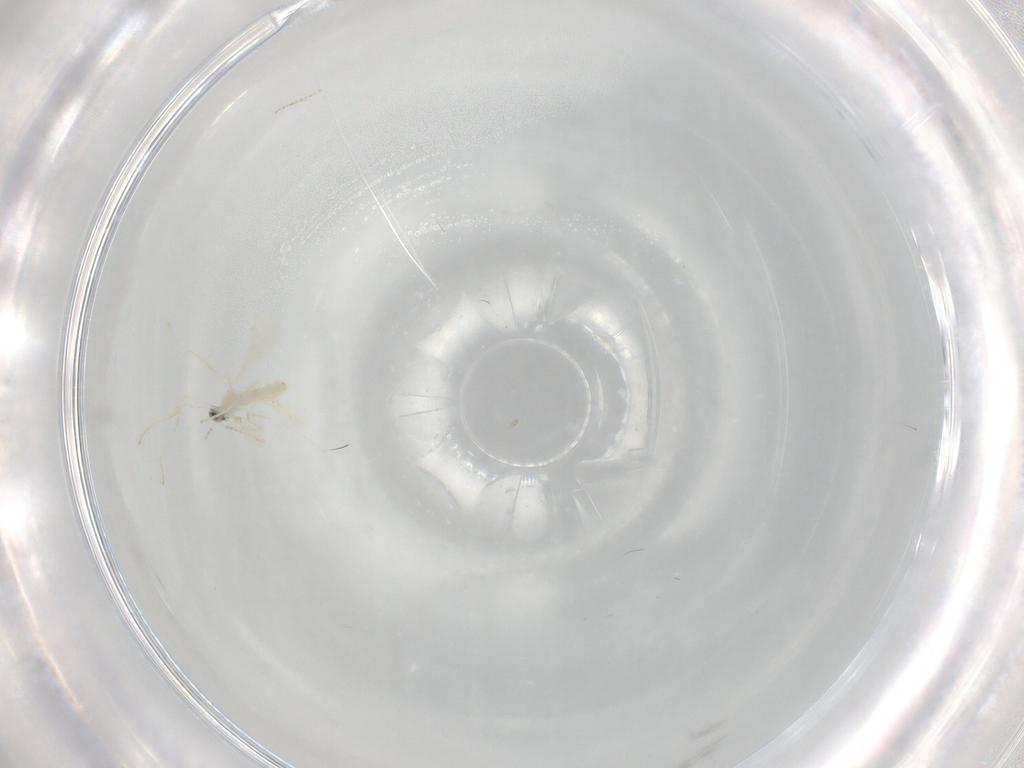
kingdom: Animalia
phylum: Arthropoda
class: Insecta
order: Diptera
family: Cecidomyiidae
